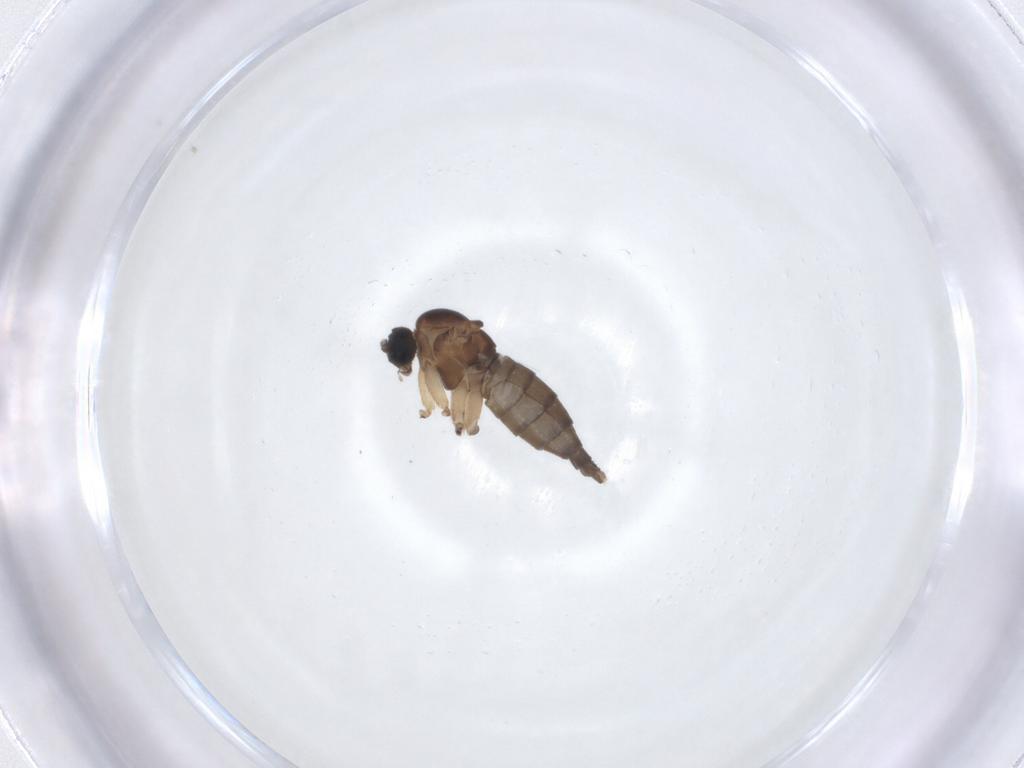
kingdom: Animalia
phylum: Arthropoda
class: Insecta
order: Diptera
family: Sciaridae
